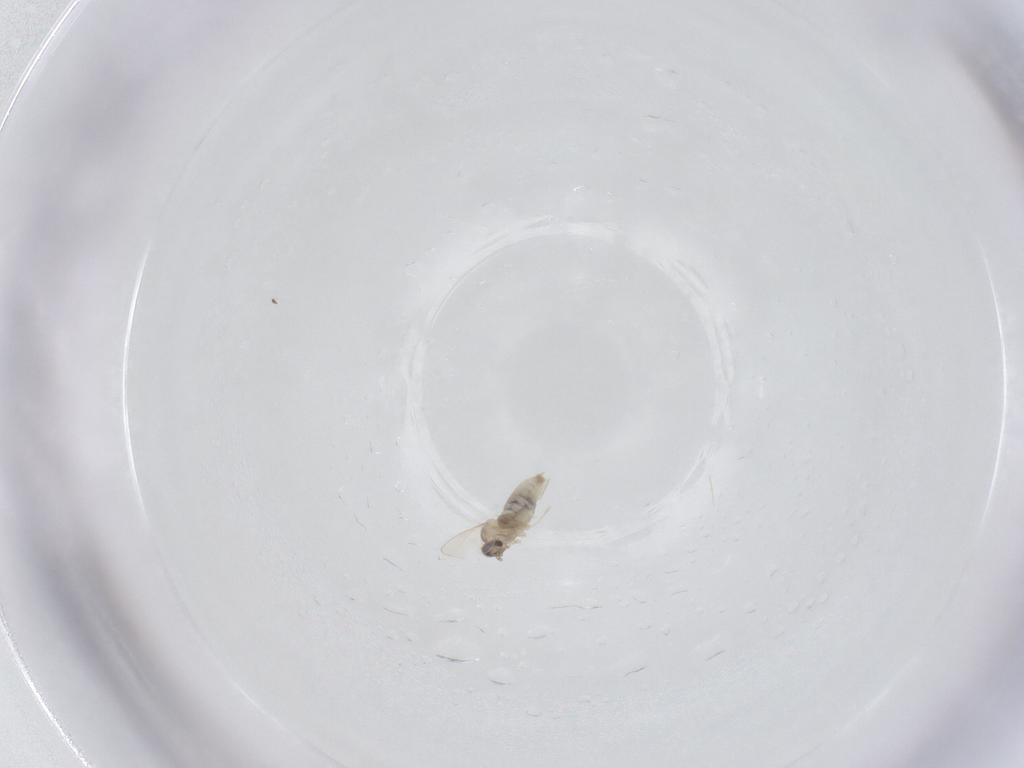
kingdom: Animalia
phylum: Arthropoda
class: Insecta
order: Diptera
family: Cecidomyiidae
